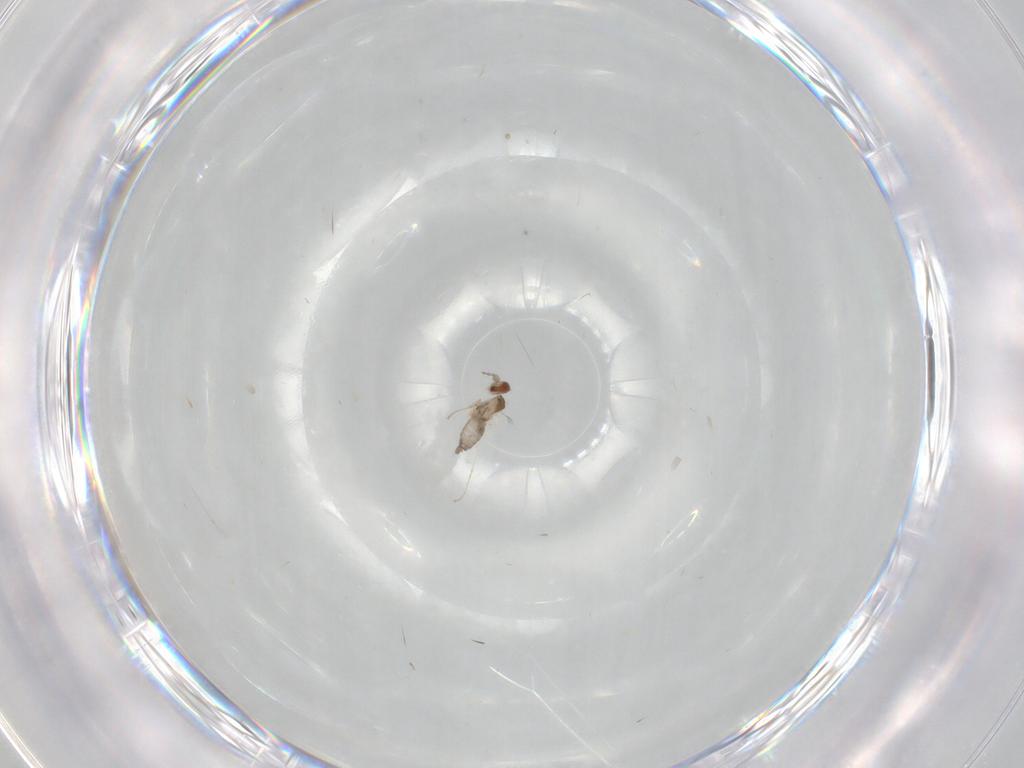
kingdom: Animalia
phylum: Arthropoda
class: Insecta
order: Diptera
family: Cecidomyiidae
